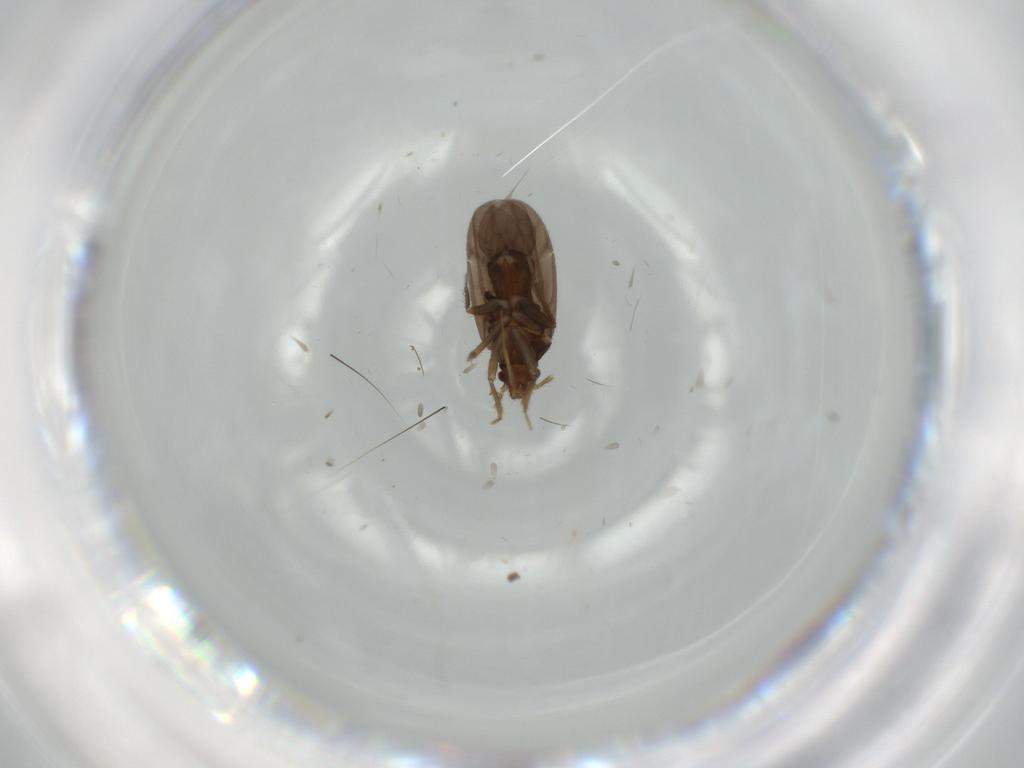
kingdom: Animalia
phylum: Arthropoda
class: Insecta
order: Hemiptera
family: Ceratocombidae
